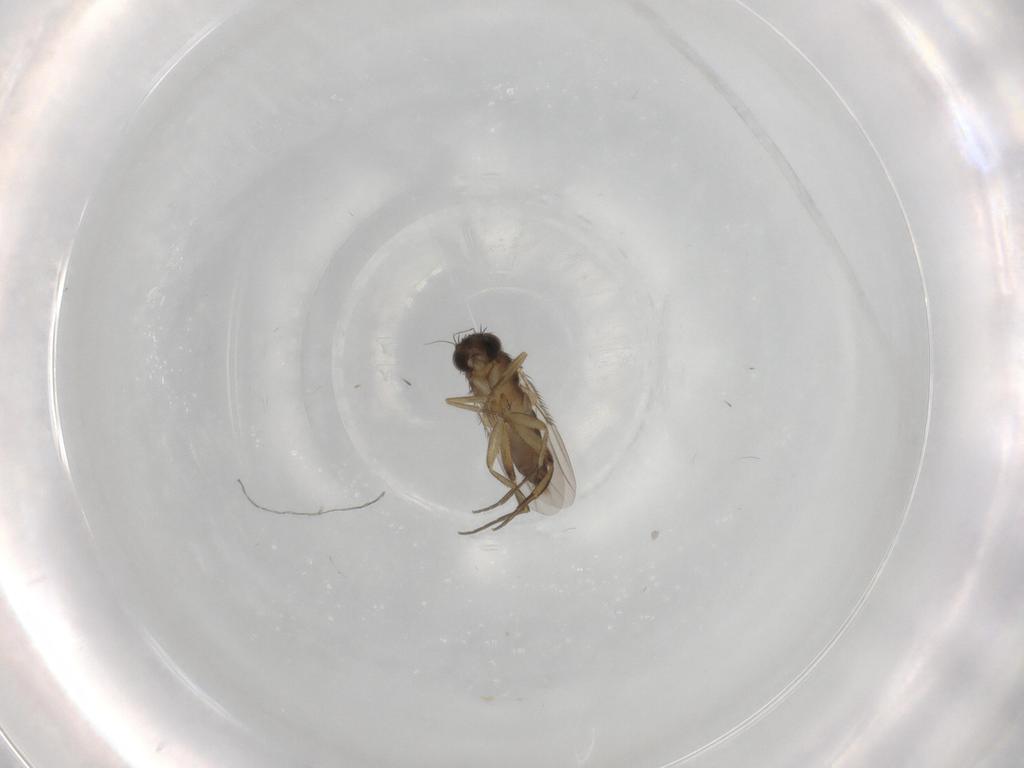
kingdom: Animalia
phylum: Arthropoda
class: Insecta
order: Diptera
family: Phoridae
